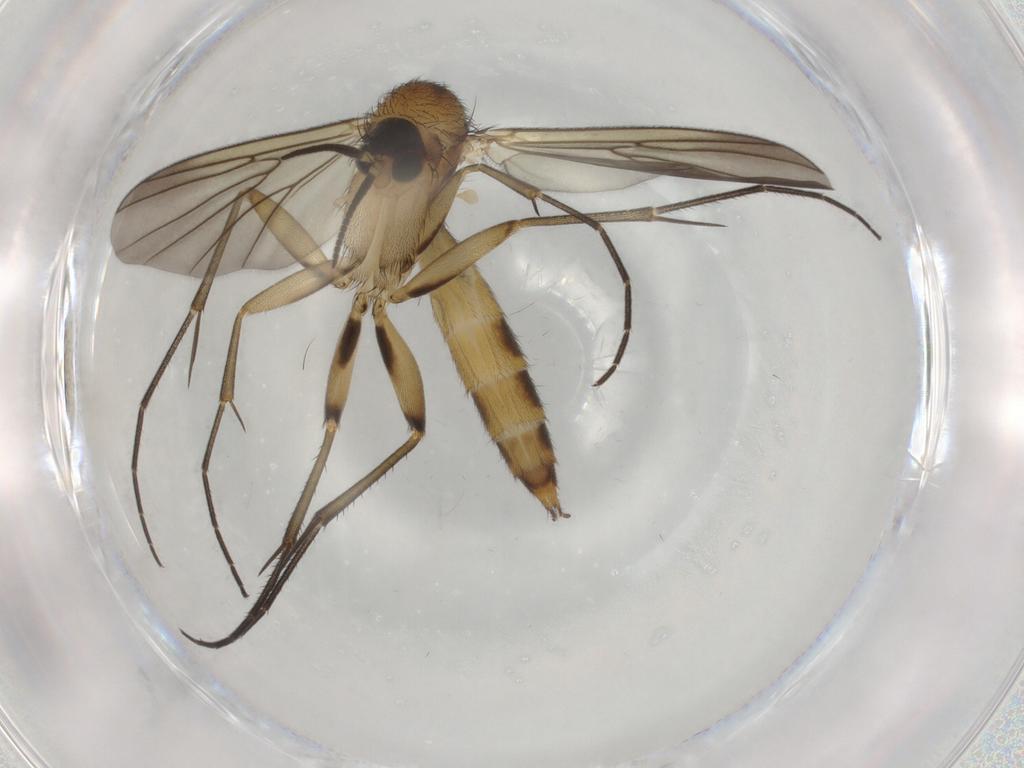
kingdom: Animalia
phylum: Arthropoda
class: Insecta
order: Diptera
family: Mycetophilidae
